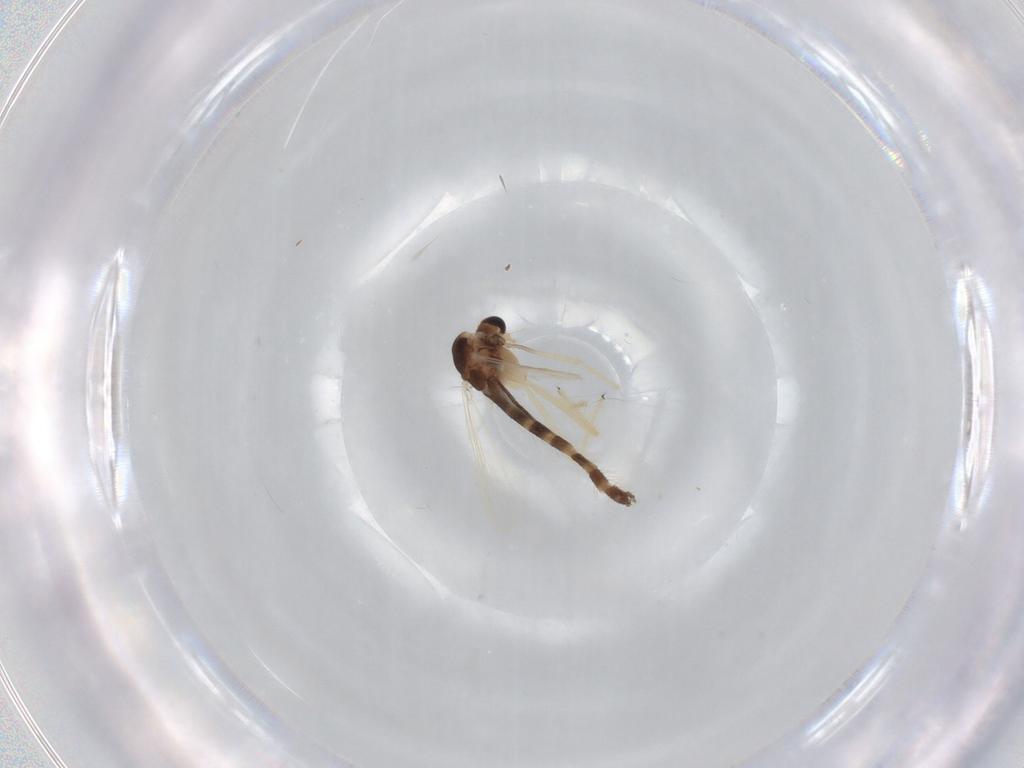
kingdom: Animalia
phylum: Arthropoda
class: Insecta
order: Diptera
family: Chironomidae
